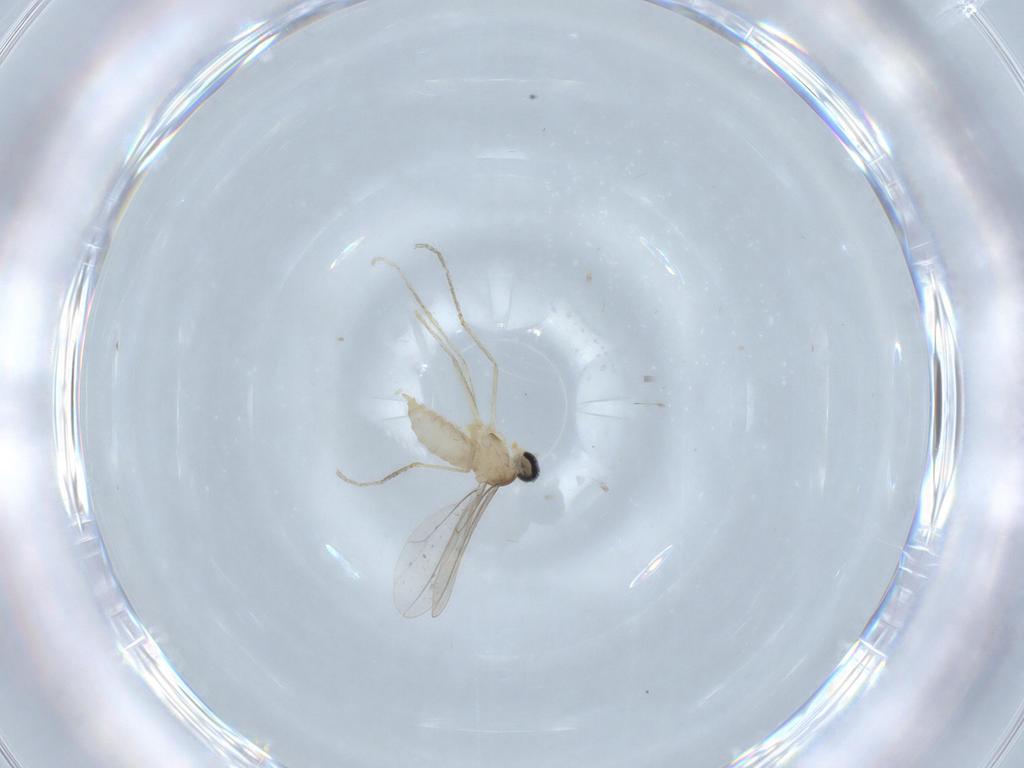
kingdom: Animalia
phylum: Arthropoda
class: Insecta
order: Diptera
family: Cecidomyiidae
